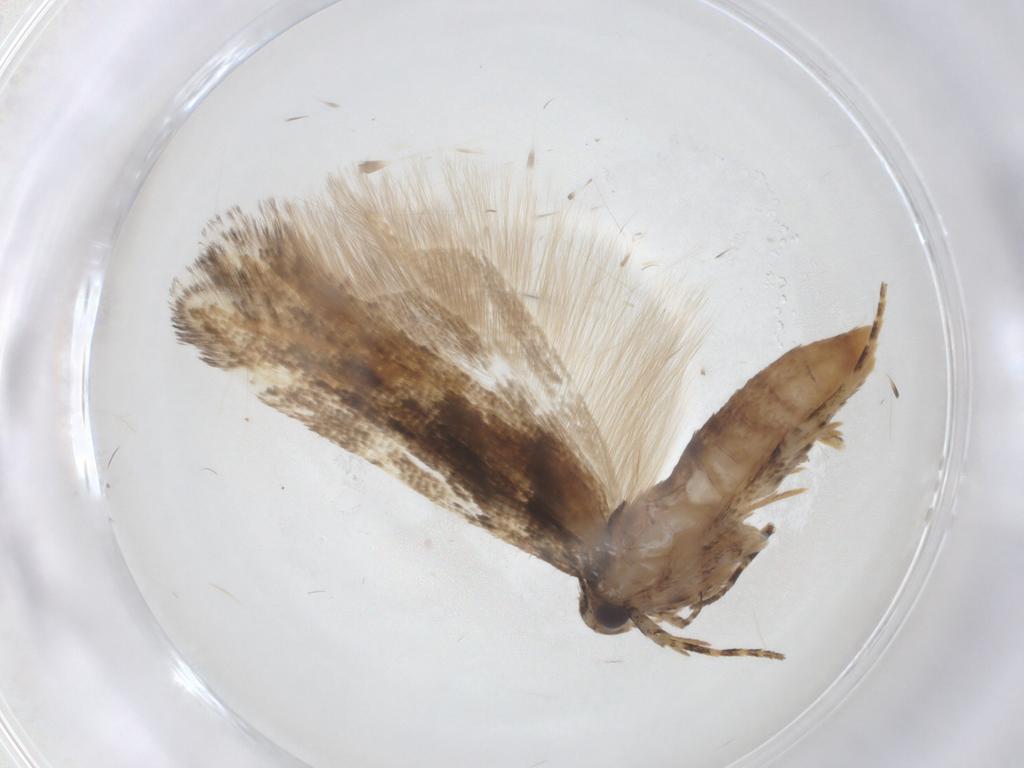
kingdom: Animalia
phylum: Arthropoda
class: Insecta
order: Lepidoptera
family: Gelechiidae
